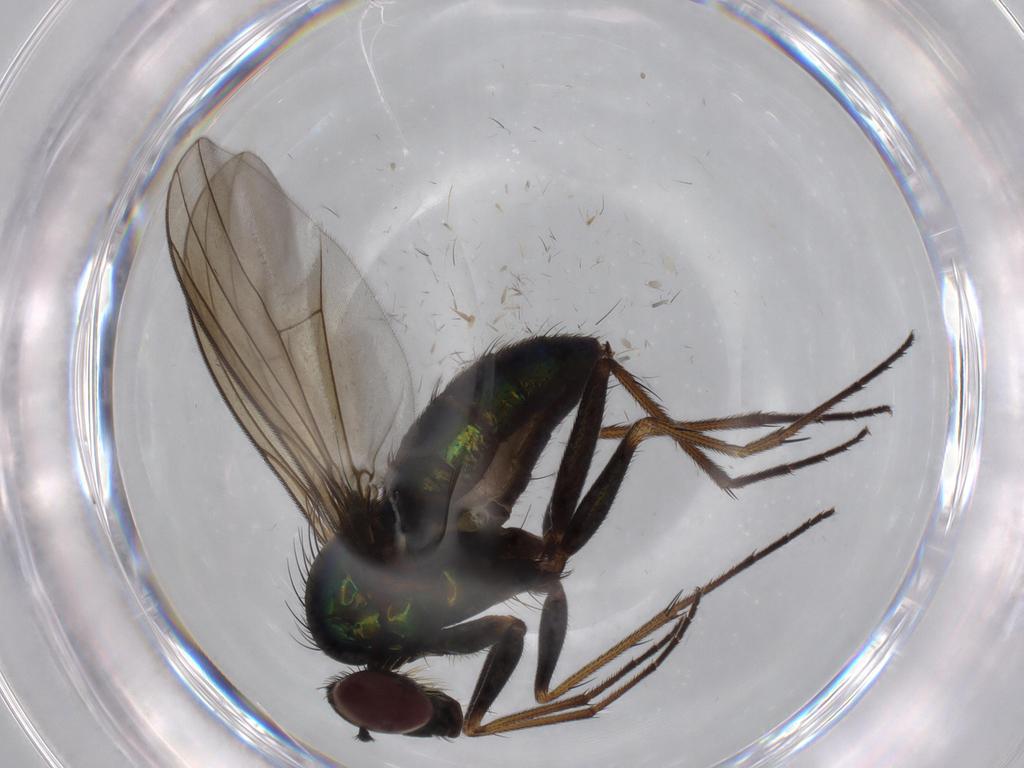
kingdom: Animalia
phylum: Arthropoda
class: Insecta
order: Diptera
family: Dolichopodidae
